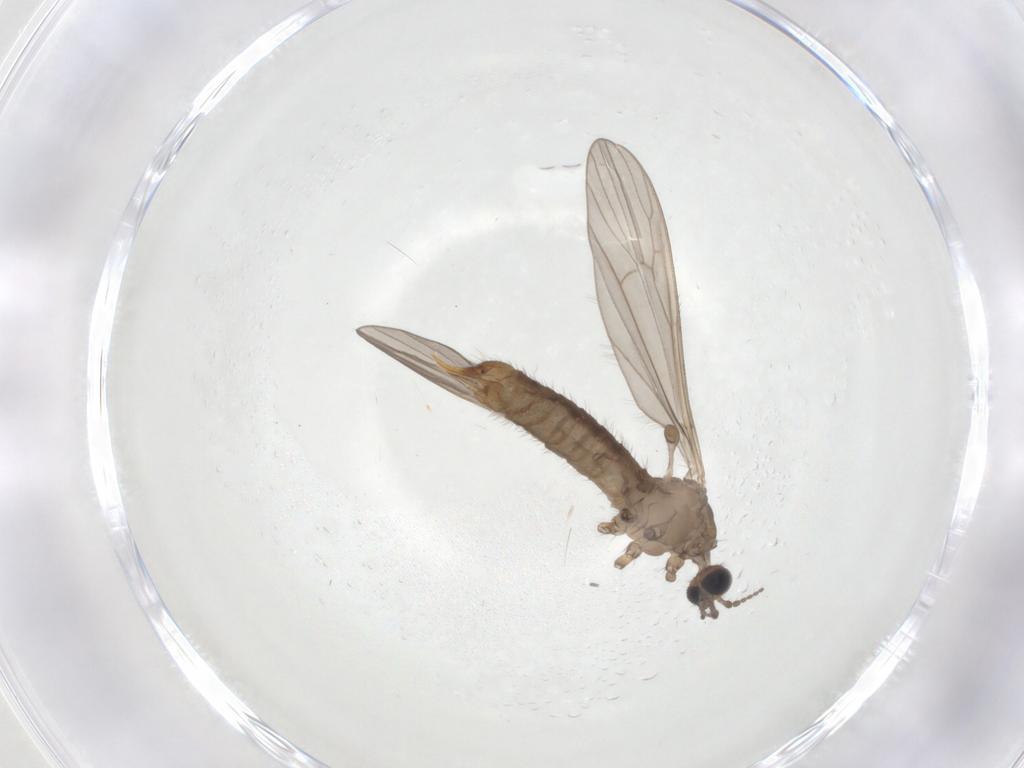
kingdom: Animalia
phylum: Arthropoda
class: Insecta
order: Diptera
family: Limoniidae
